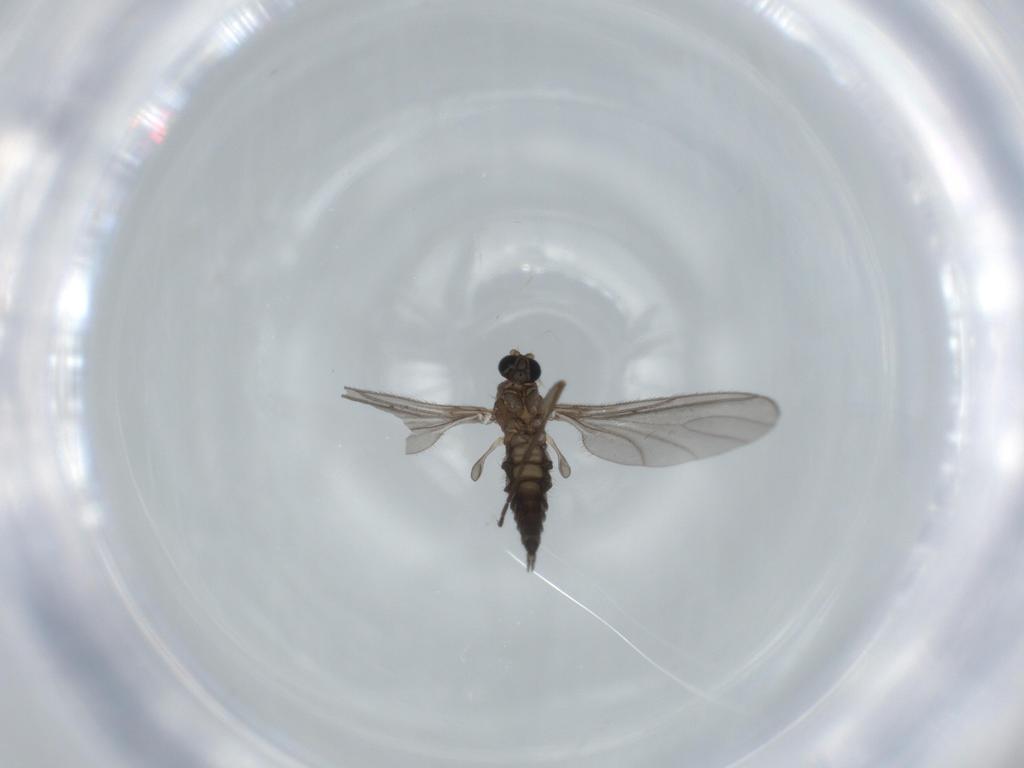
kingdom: Animalia
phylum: Arthropoda
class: Insecta
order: Diptera
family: Sciaridae
